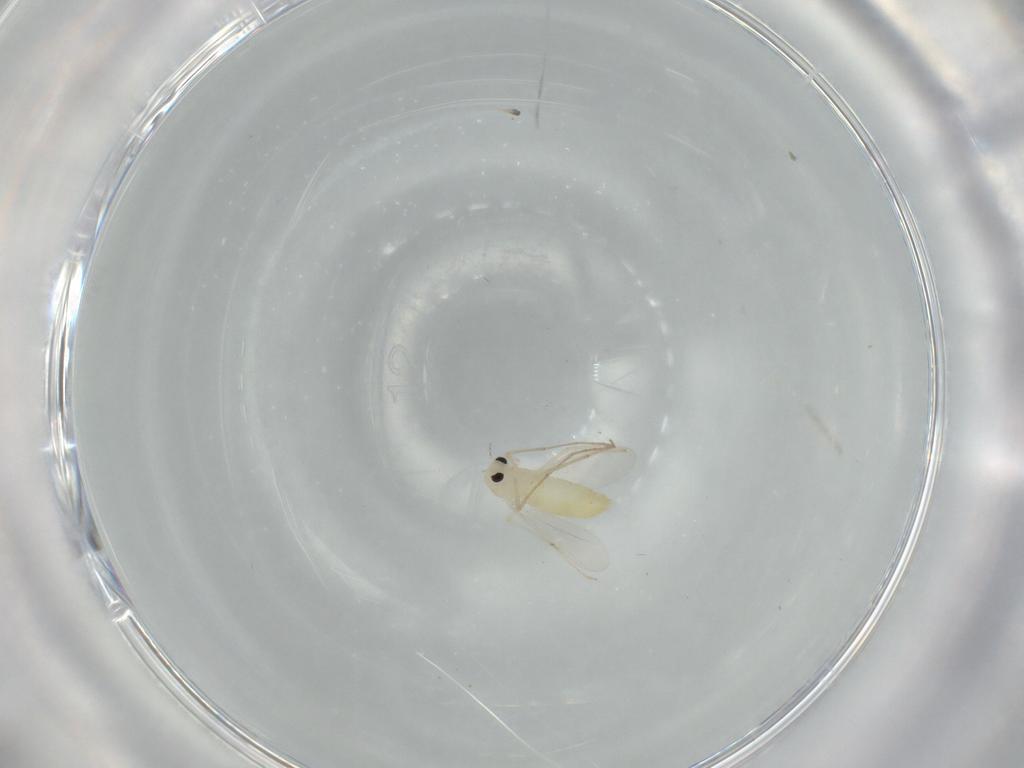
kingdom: Animalia
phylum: Arthropoda
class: Insecta
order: Diptera
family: Chironomidae
